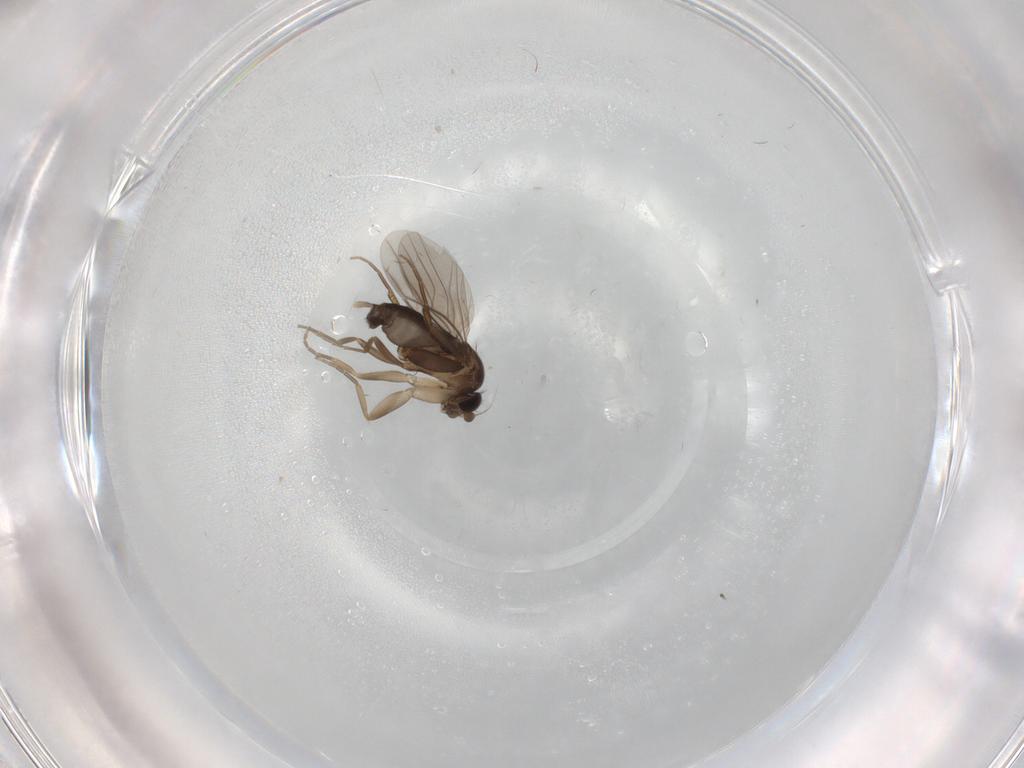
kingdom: Animalia
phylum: Arthropoda
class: Insecta
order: Diptera
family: Phoridae
